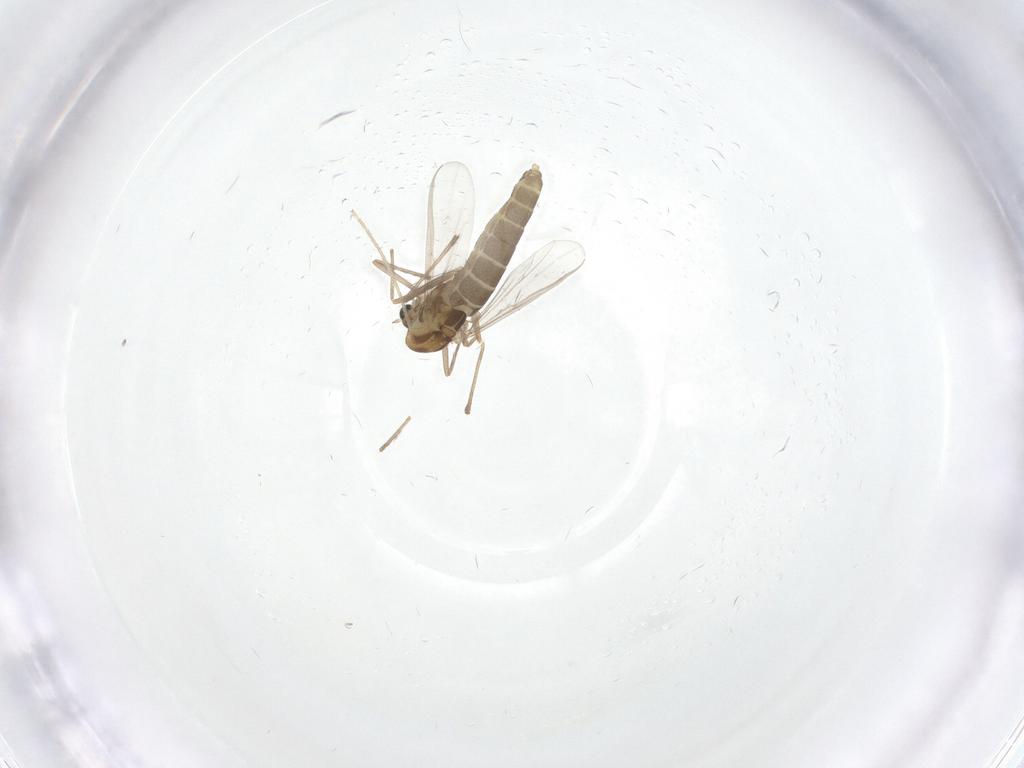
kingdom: Animalia
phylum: Arthropoda
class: Insecta
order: Diptera
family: Chironomidae
